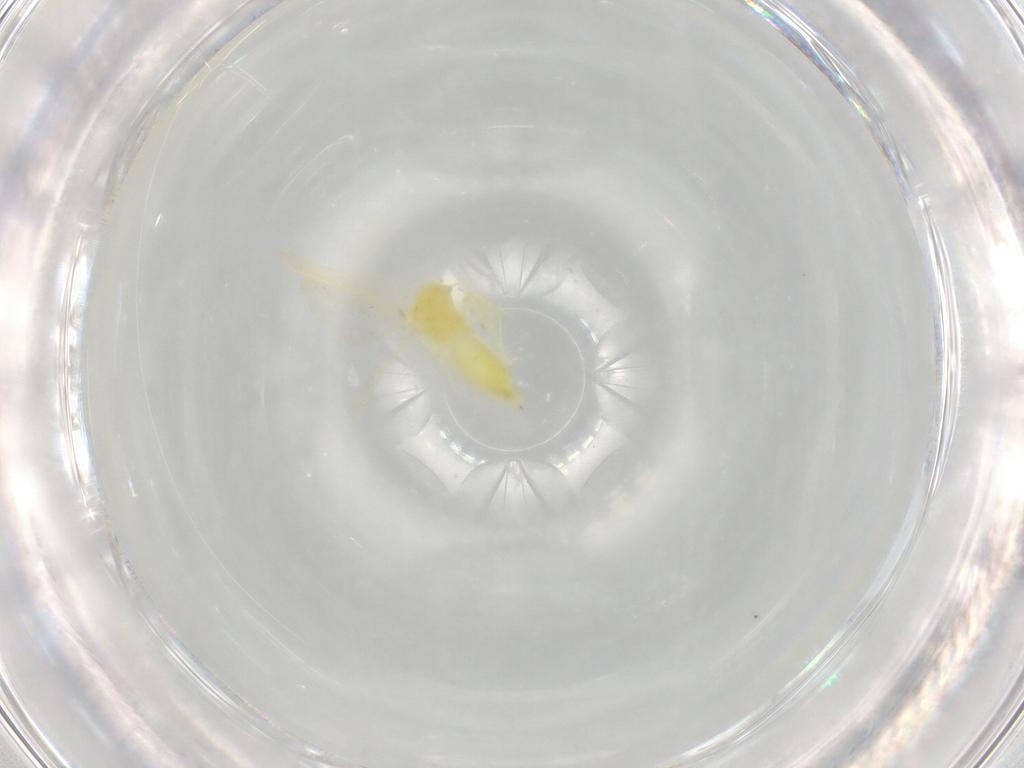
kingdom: Animalia
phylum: Arthropoda
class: Insecta
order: Hemiptera
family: Aleyrodidae
